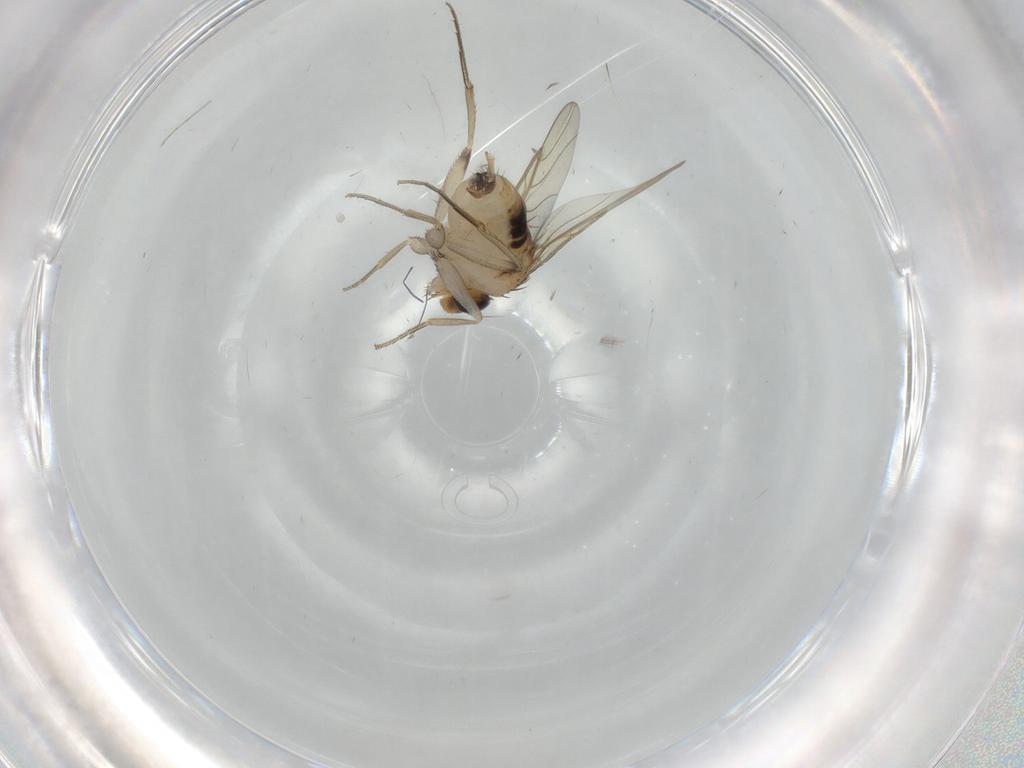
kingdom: Animalia
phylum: Arthropoda
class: Insecta
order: Diptera
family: Phoridae
